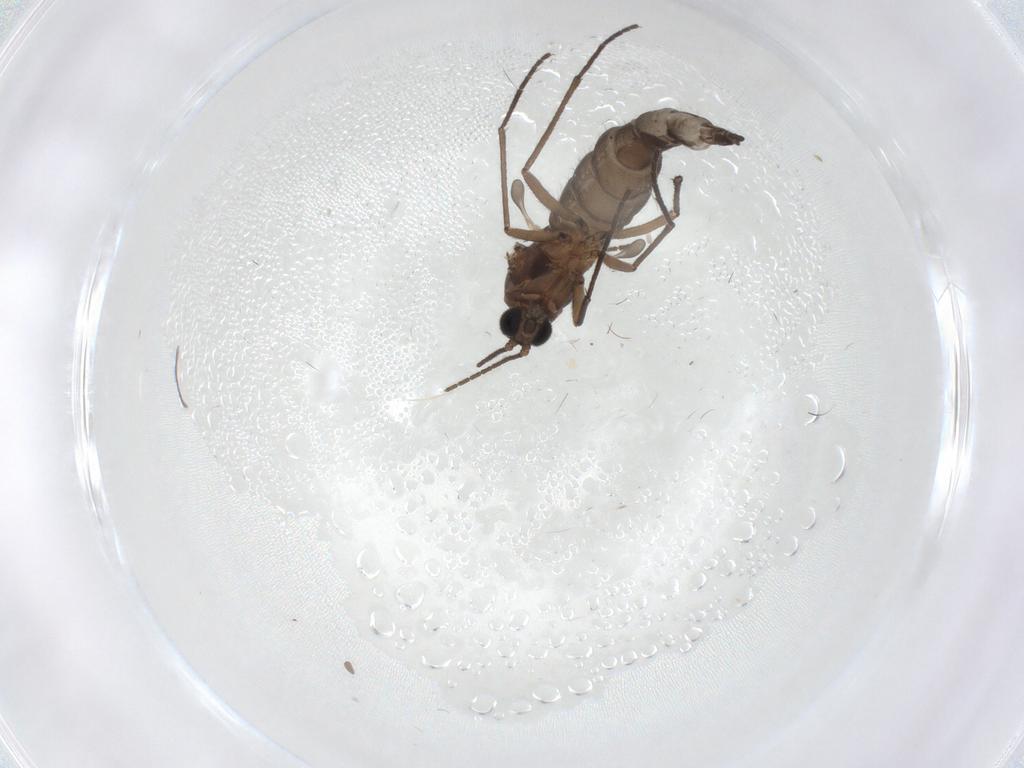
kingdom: Animalia
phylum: Arthropoda
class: Insecta
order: Diptera
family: Sciaridae
